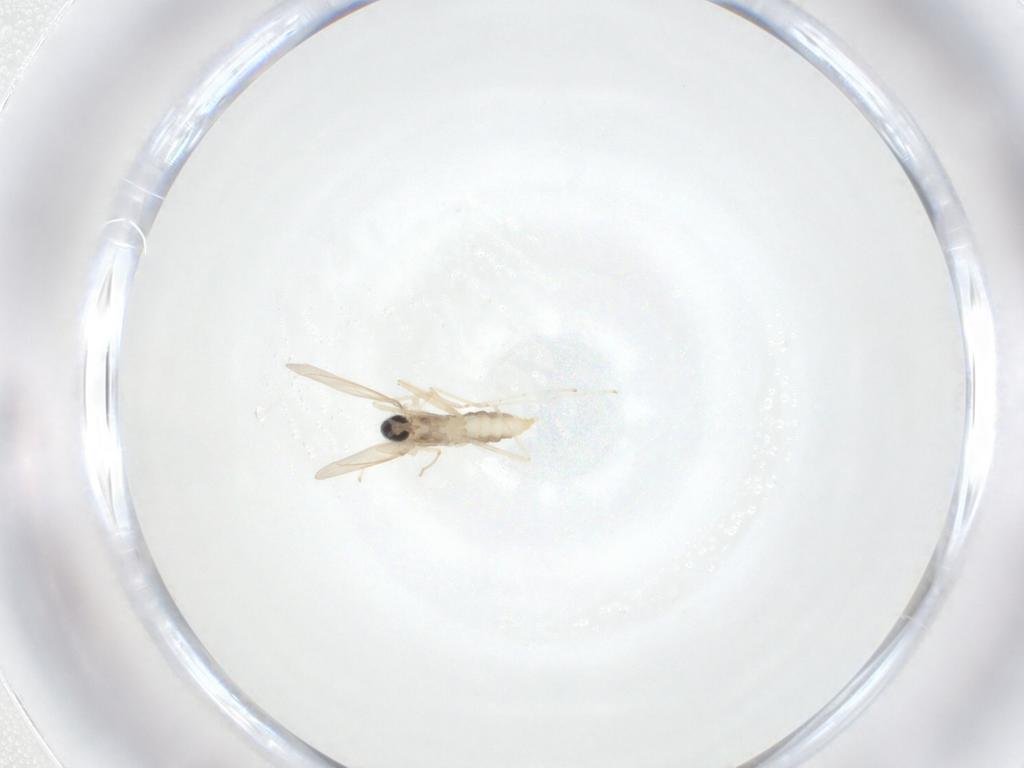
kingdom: Animalia
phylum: Arthropoda
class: Insecta
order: Diptera
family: Cecidomyiidae
